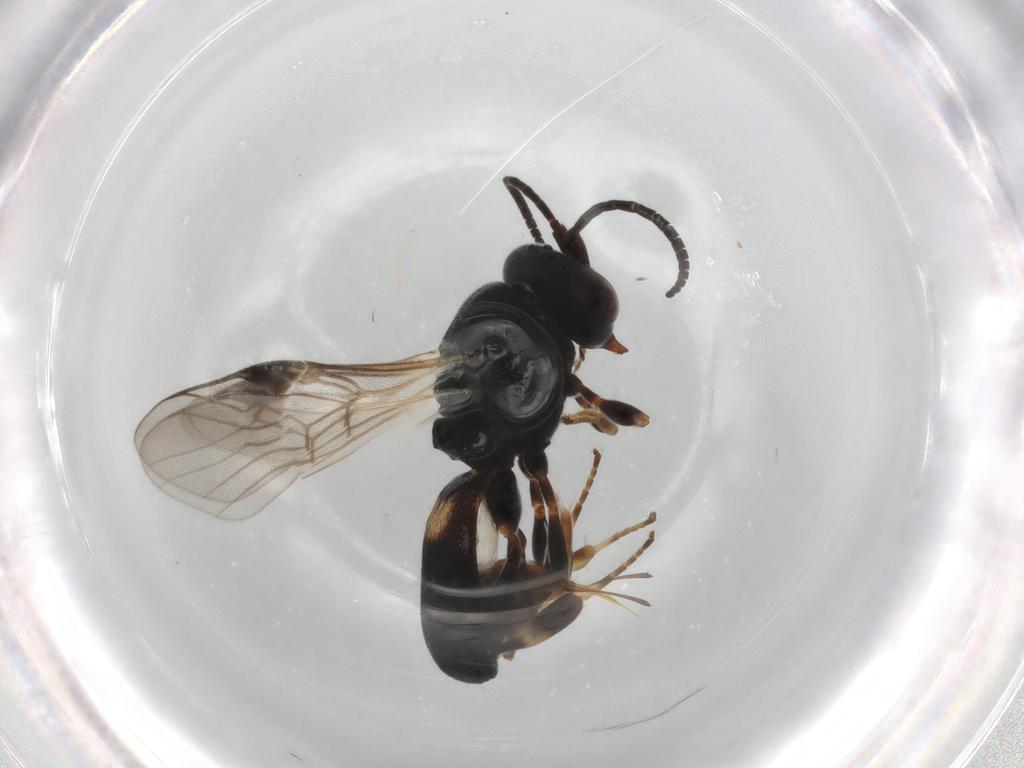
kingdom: Animalia
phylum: Arthropoda
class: Insecta
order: Hymenoptera
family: Braconidae
